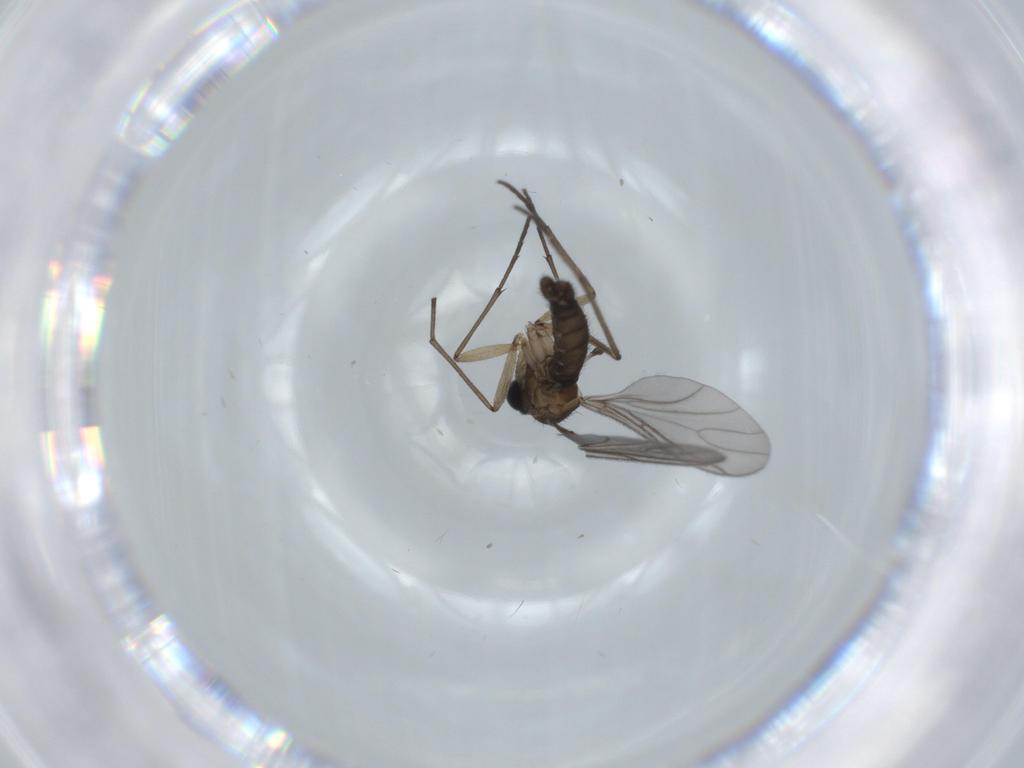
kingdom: Animalia
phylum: Arthropoda
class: Insecta
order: Diptera
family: Sciaridae
